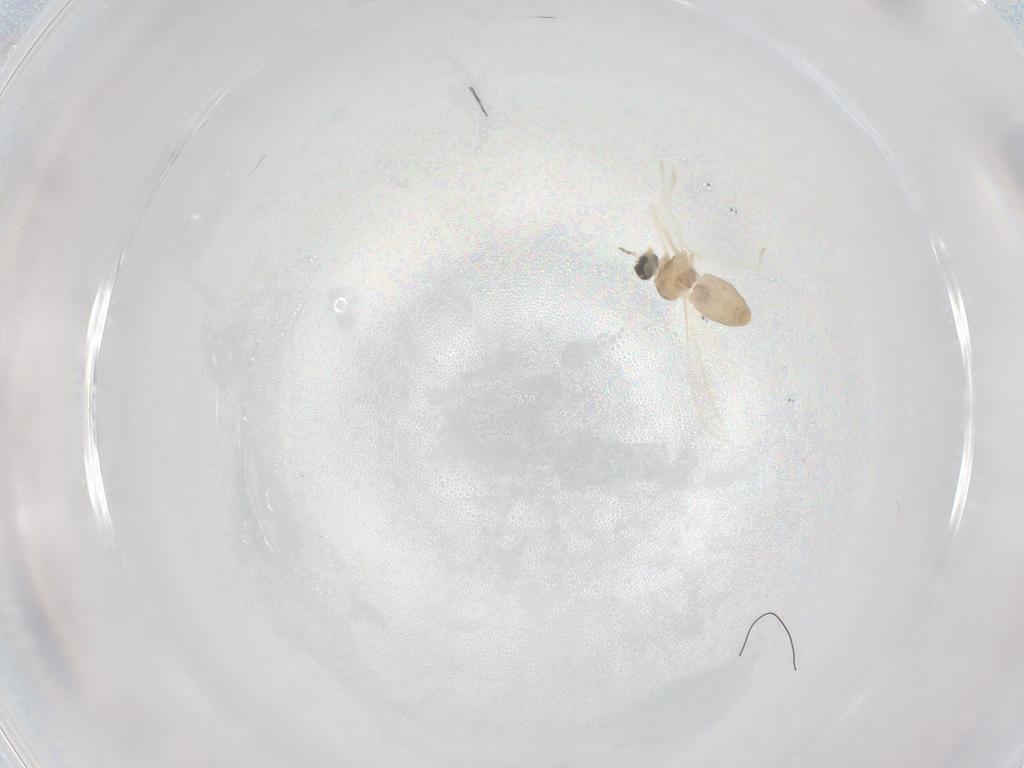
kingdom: Animalia
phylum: Arthropoda
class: Insecta
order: Diptera
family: Cecidomyiidae
